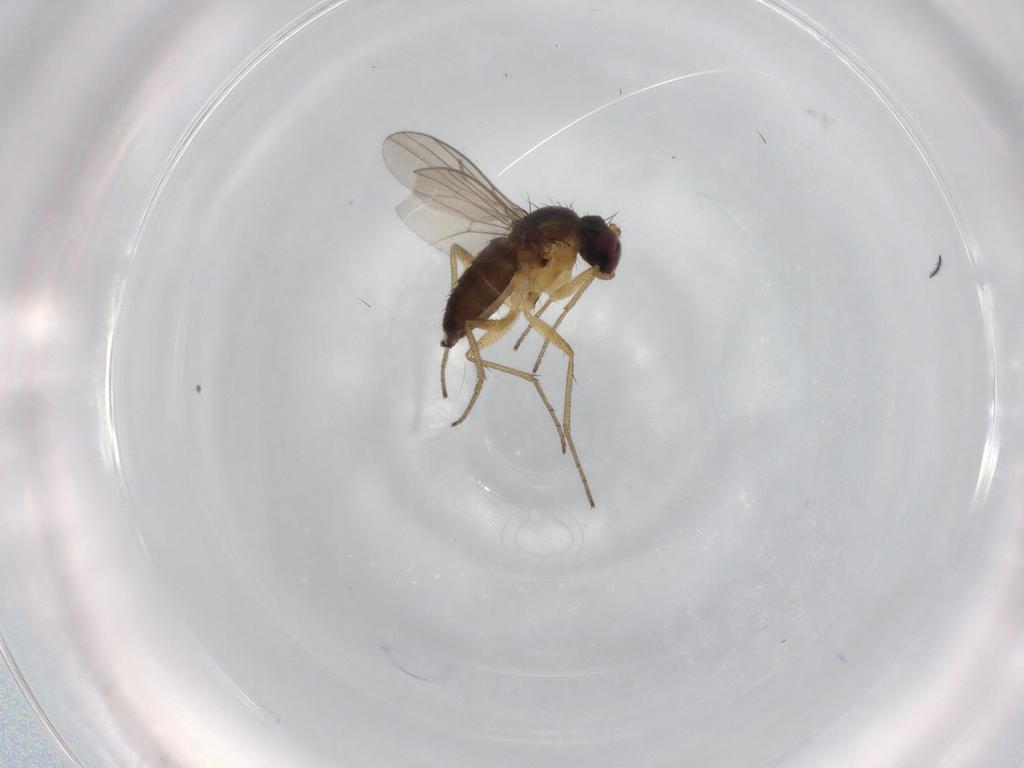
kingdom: Animalia
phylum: Arthropoda
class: Insecta
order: Diptera
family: Dolichopodidae
